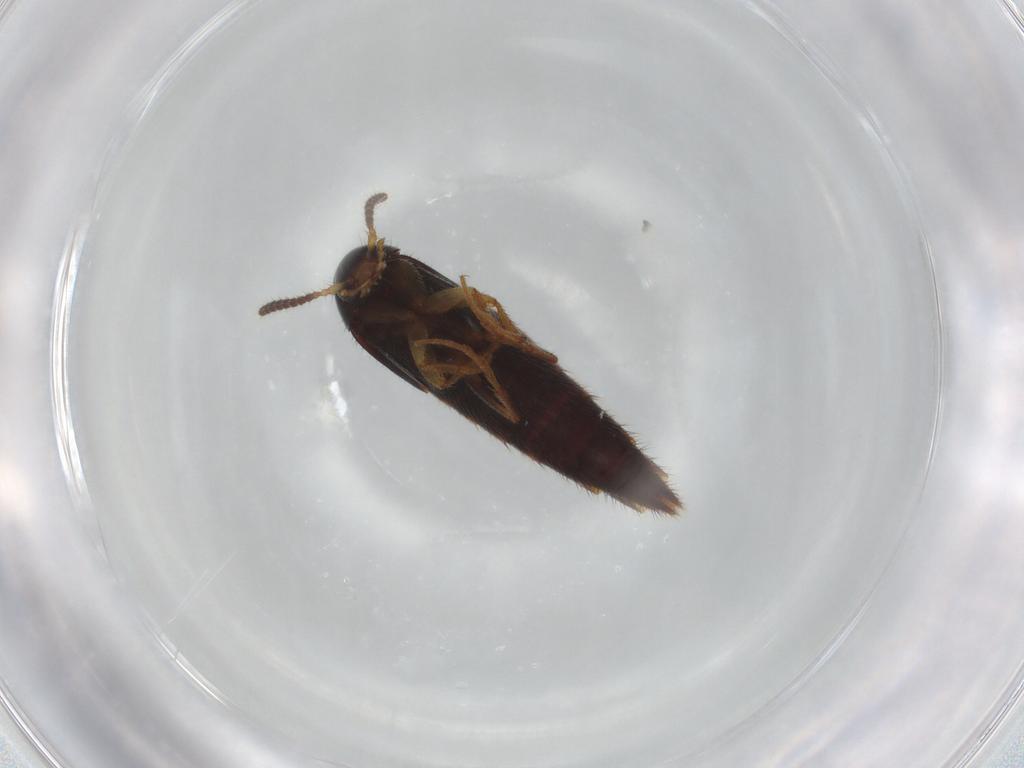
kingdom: Animalia
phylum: Arthropoda
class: Insecta
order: Coleoptera
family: Staphylinidae
